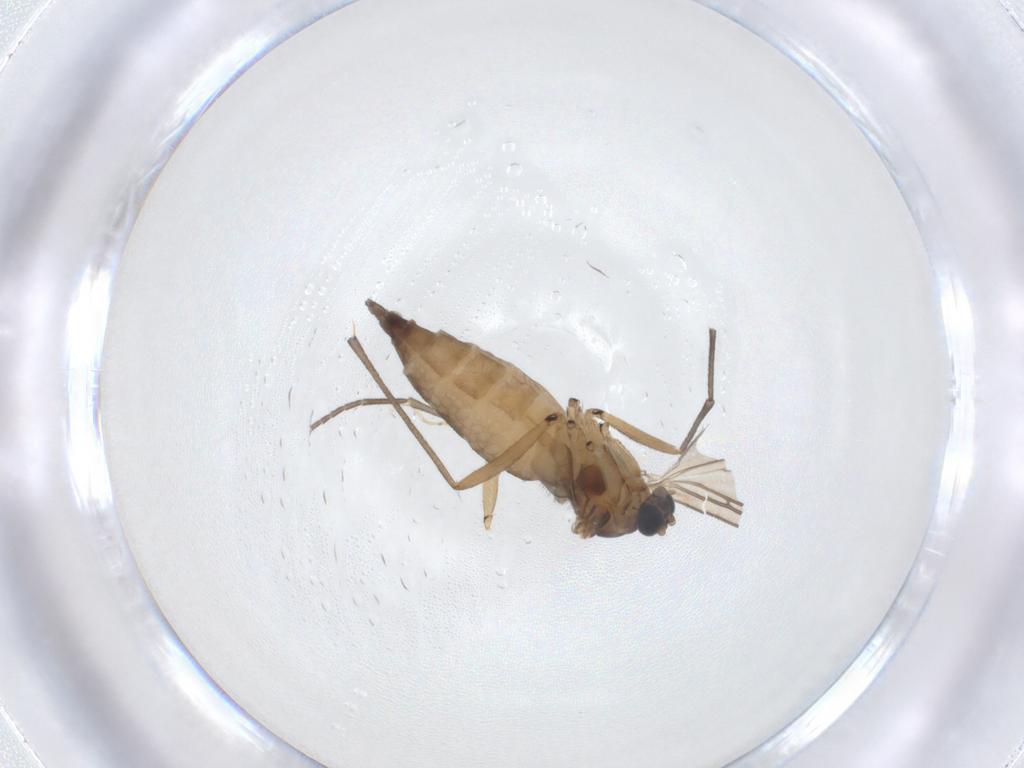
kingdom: Animalia
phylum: Arthropoda
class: Insecta
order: Diptera
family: Sciaridae
